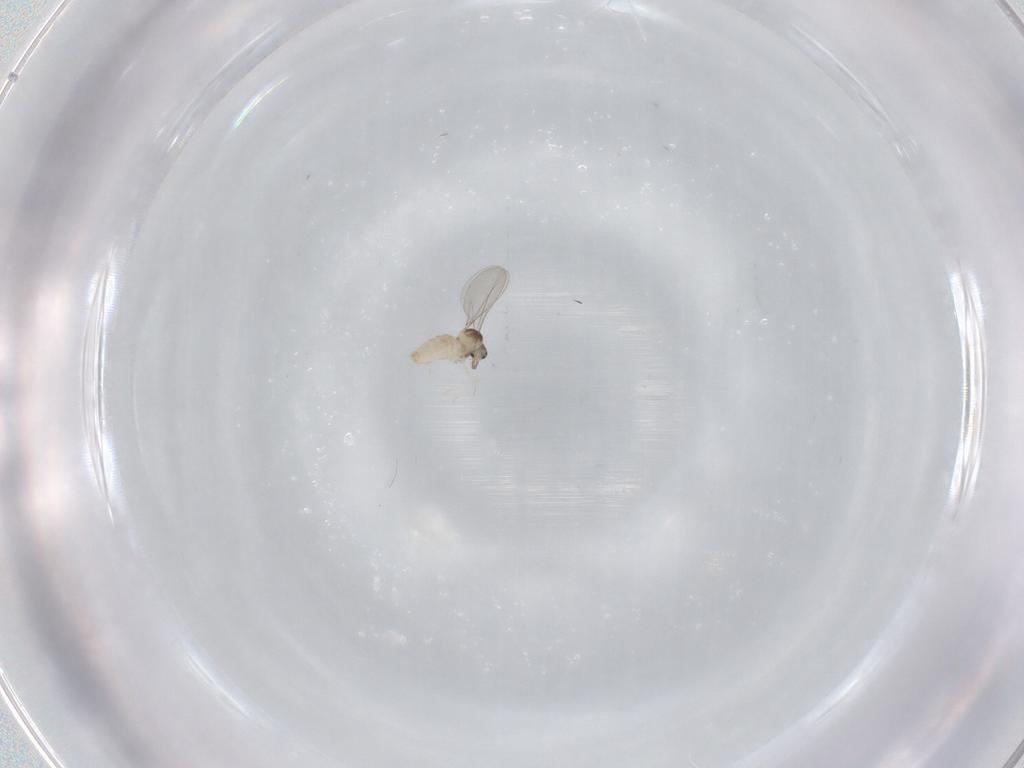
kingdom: Animalia
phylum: Arthropoda
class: Insecta
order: Diptera
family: Cecidomyiidae
